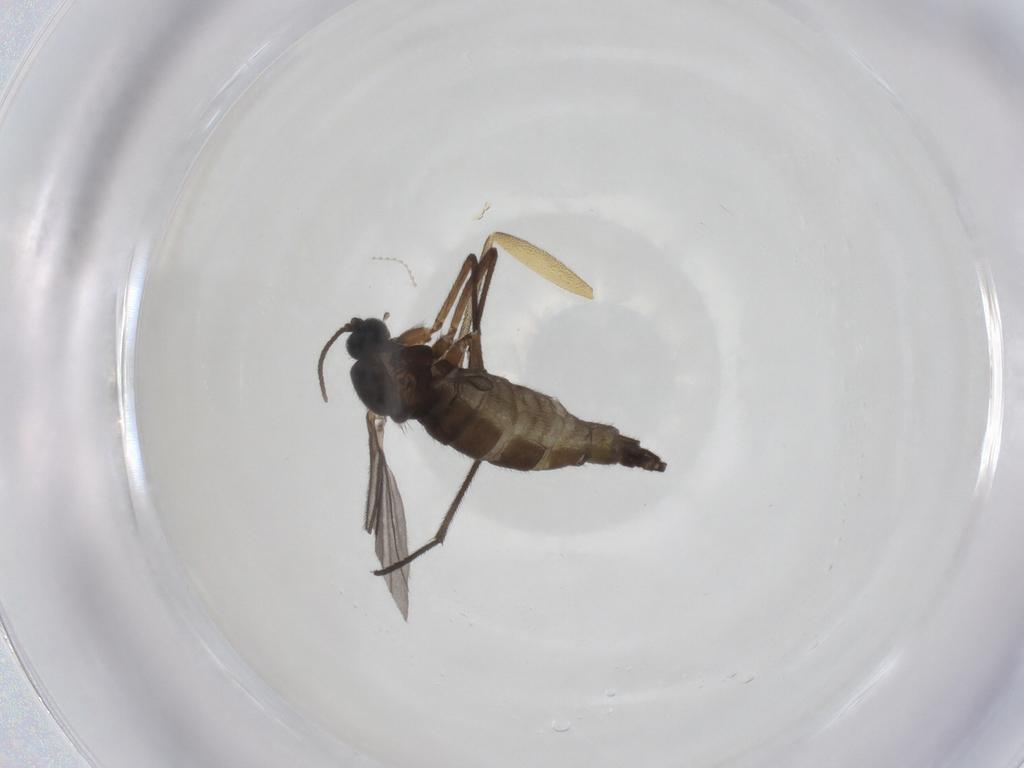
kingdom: Animalia
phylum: Arthropoda
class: Insecta
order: Diptera
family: Sciaridae
